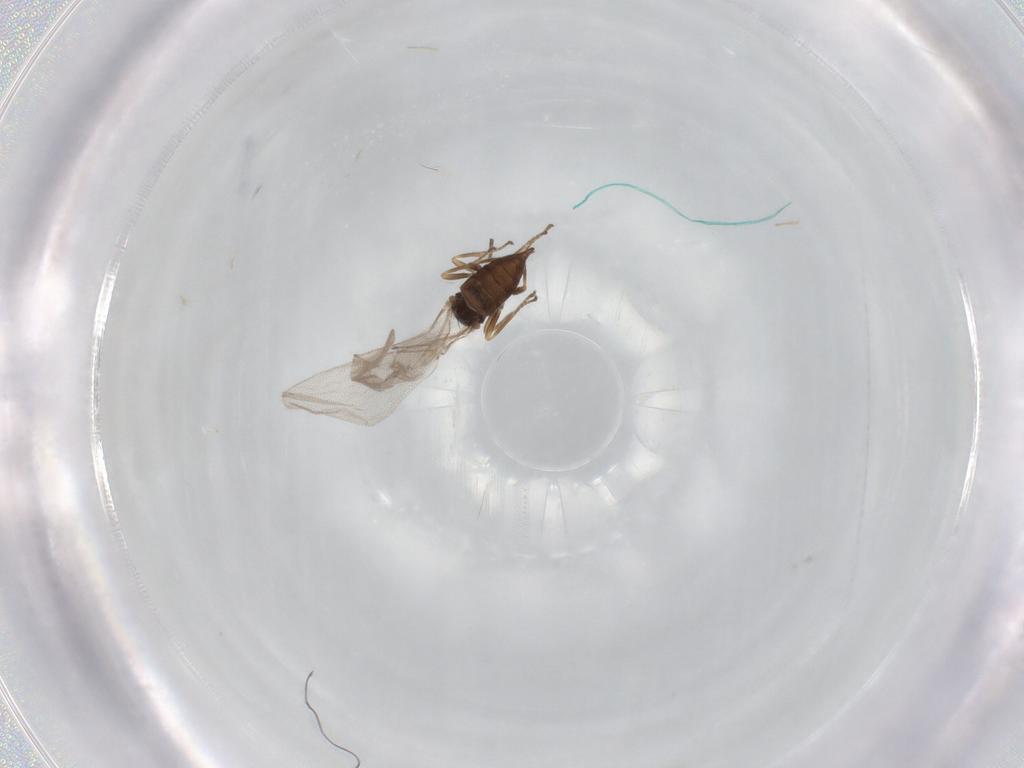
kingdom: Animalia
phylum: Arthropoda
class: Insecta
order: Hymenoptera
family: Braconidae
